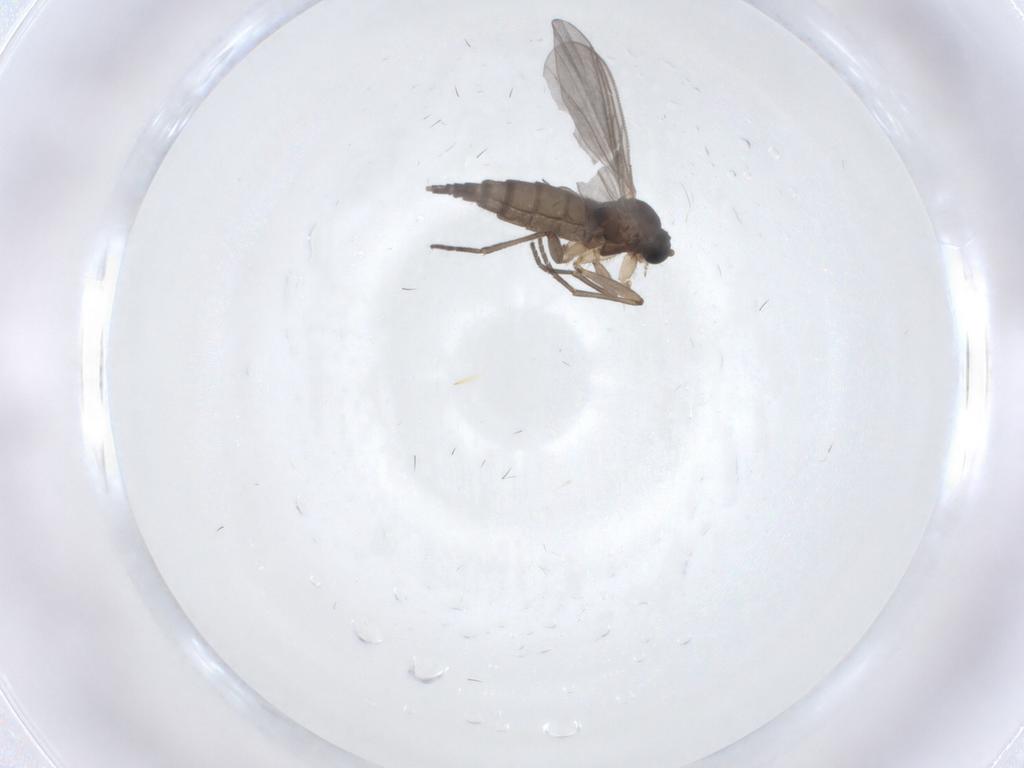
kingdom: Animalia
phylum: Arthropoda
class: Insecta
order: Diptera
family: Sciaridae
